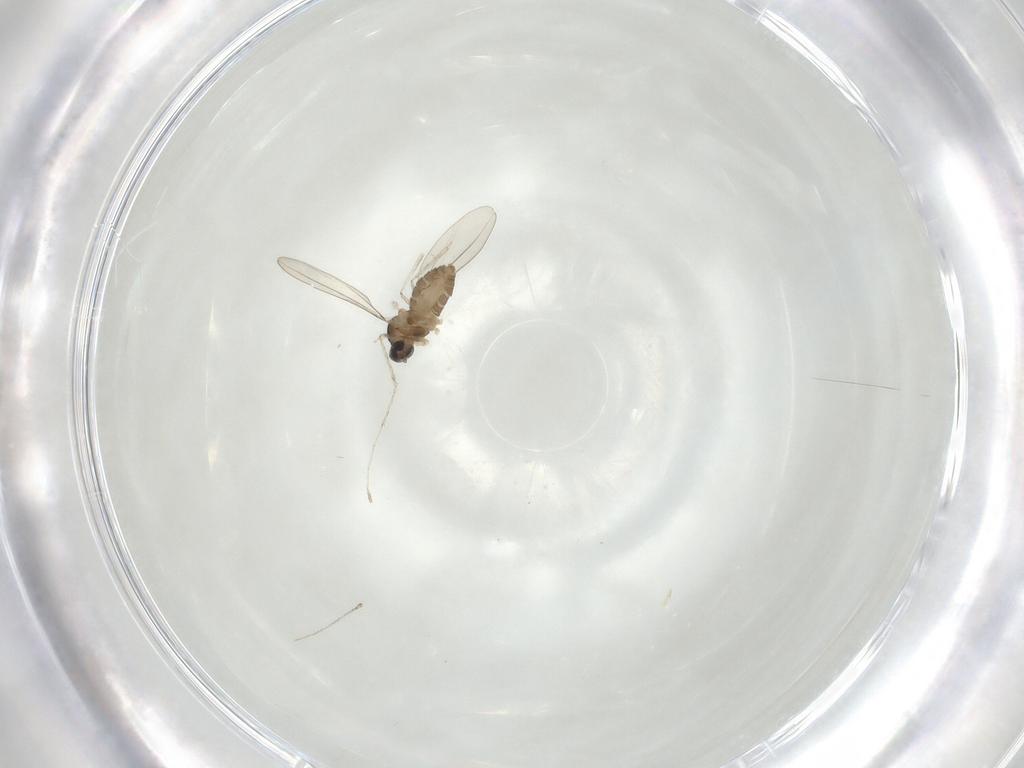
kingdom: Animalia
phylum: Arthropoda
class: Insecta
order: Diptera
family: Cecidomyiidae
